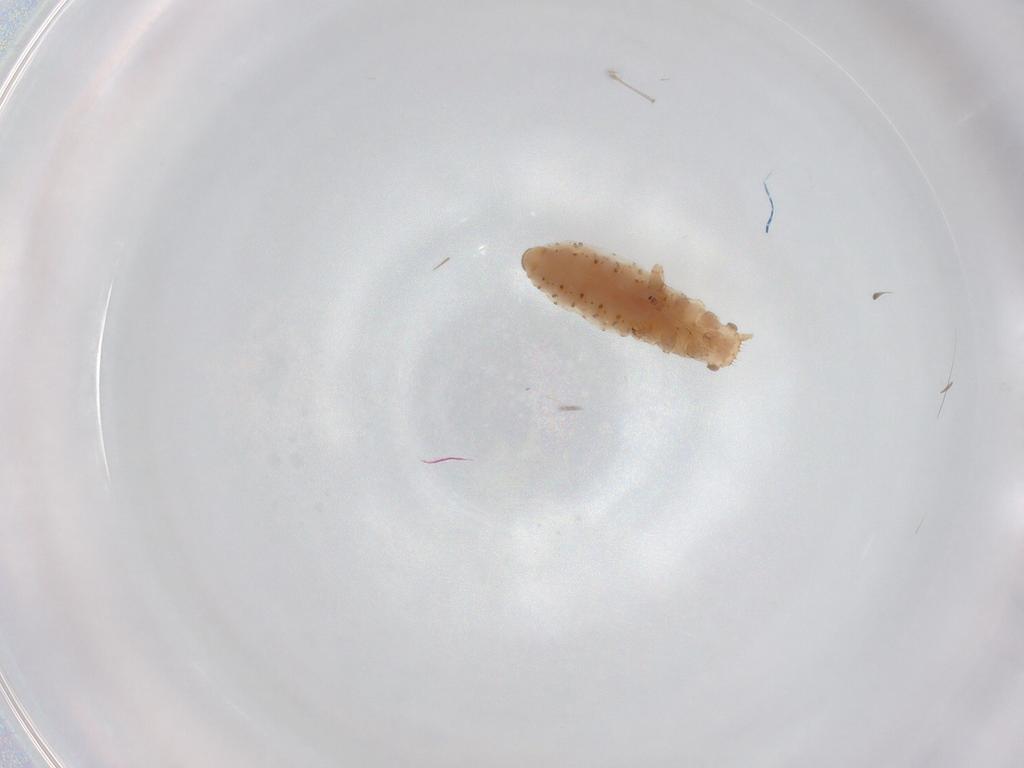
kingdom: Animalia
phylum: Arthropoda
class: Insecta
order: Hemiptera
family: Aphididae
